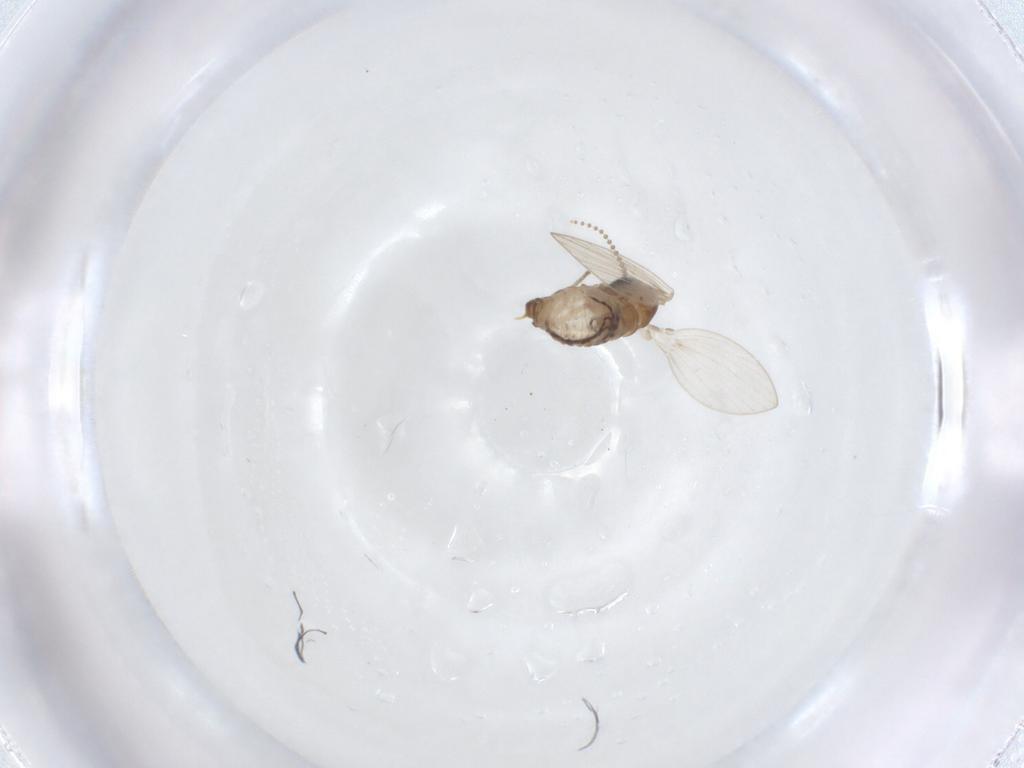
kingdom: Animalia
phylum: Arthropoda
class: Insecta
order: Diptera
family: Psychodidae
